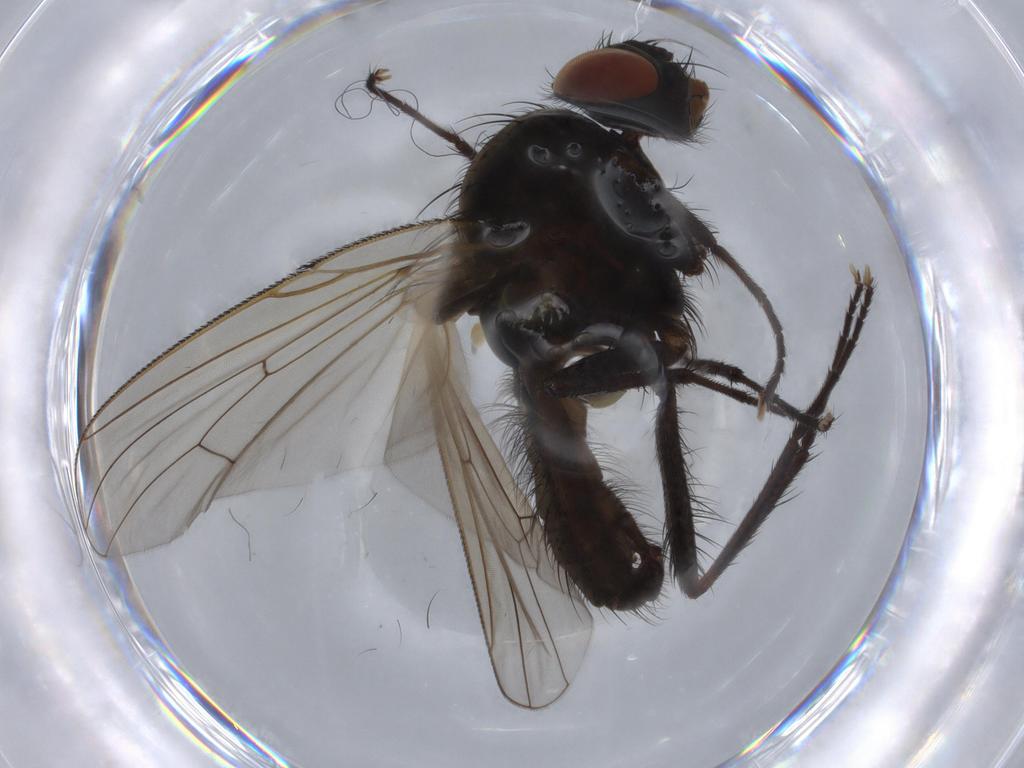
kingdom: Animalia
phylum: Arthropoda
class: Insecta
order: Diptera
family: Anthomyiidae
